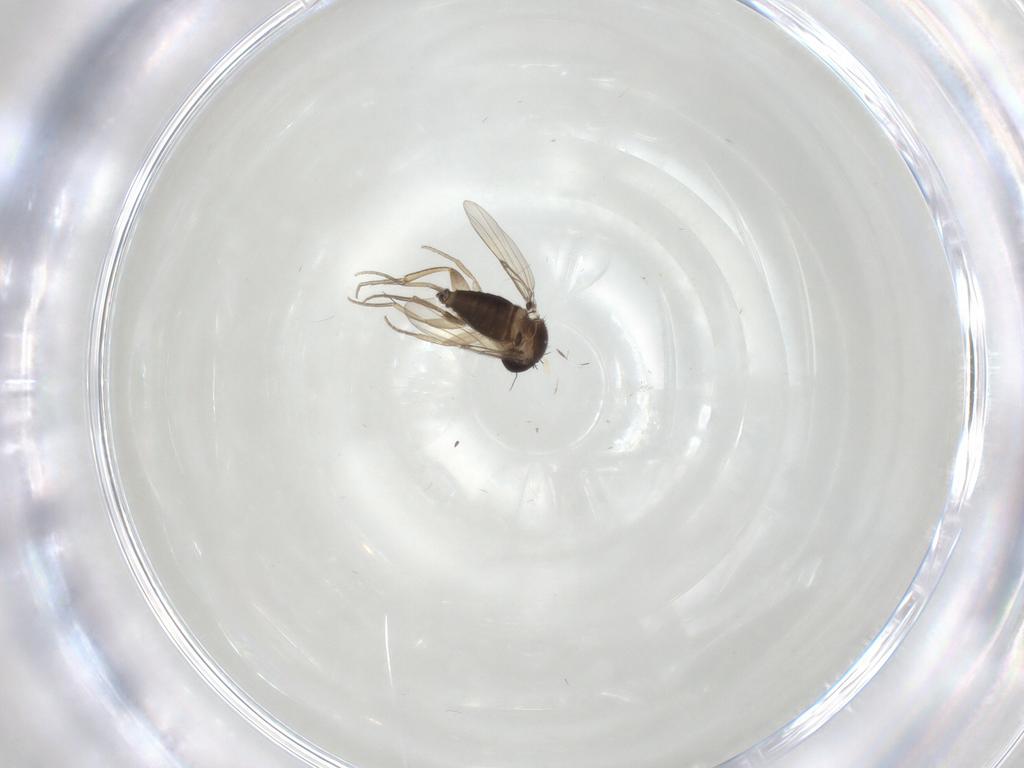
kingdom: Animalia
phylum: Arthropoda
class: Insecta
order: Diptera
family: Phoridae
